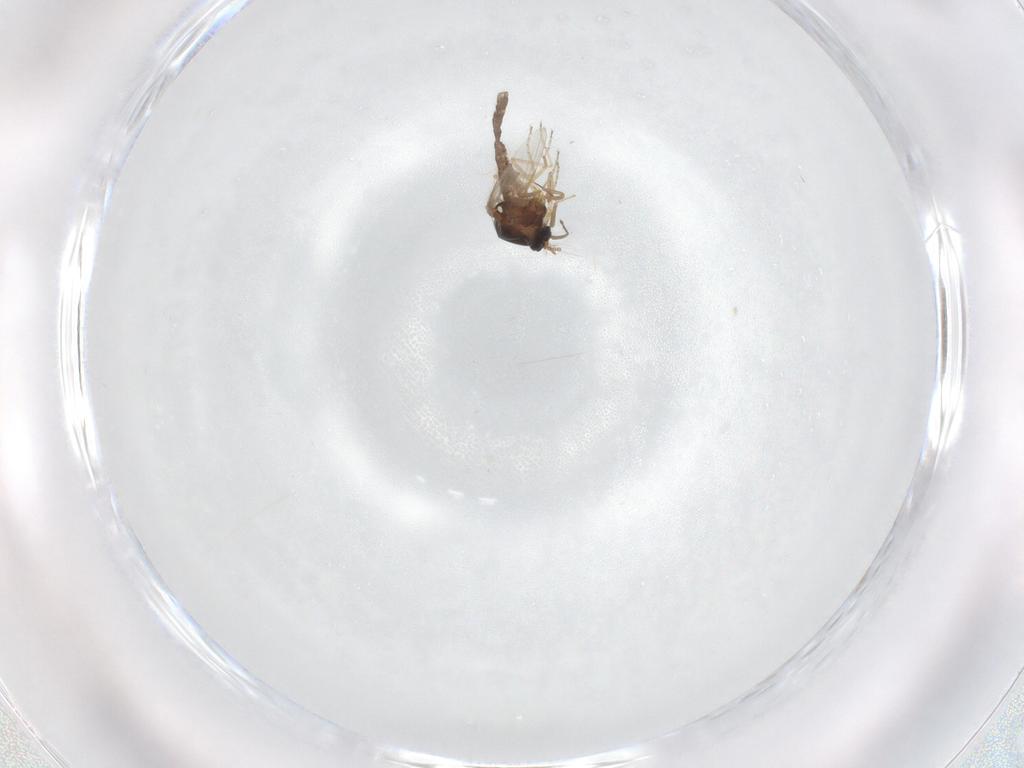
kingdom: Animalia
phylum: Arthropoda
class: Insecta
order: Diptera
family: Ceratopogonidae
